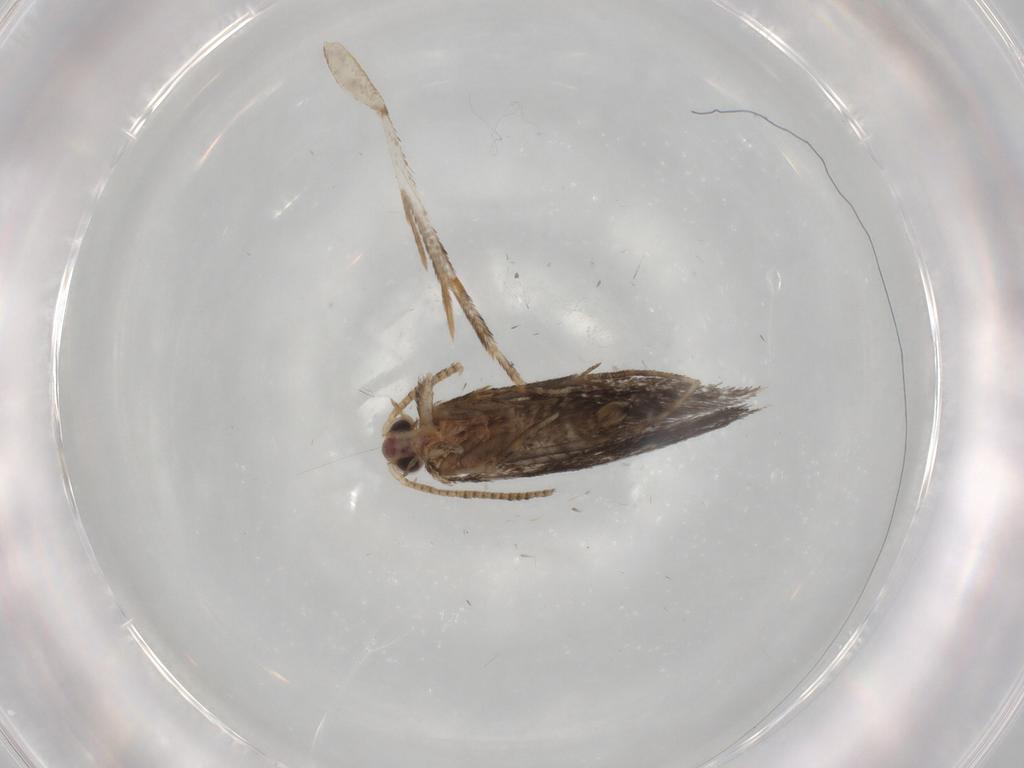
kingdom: Animalia
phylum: Arthropoda
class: Insecta
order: Lepidoptera
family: Tineidae
